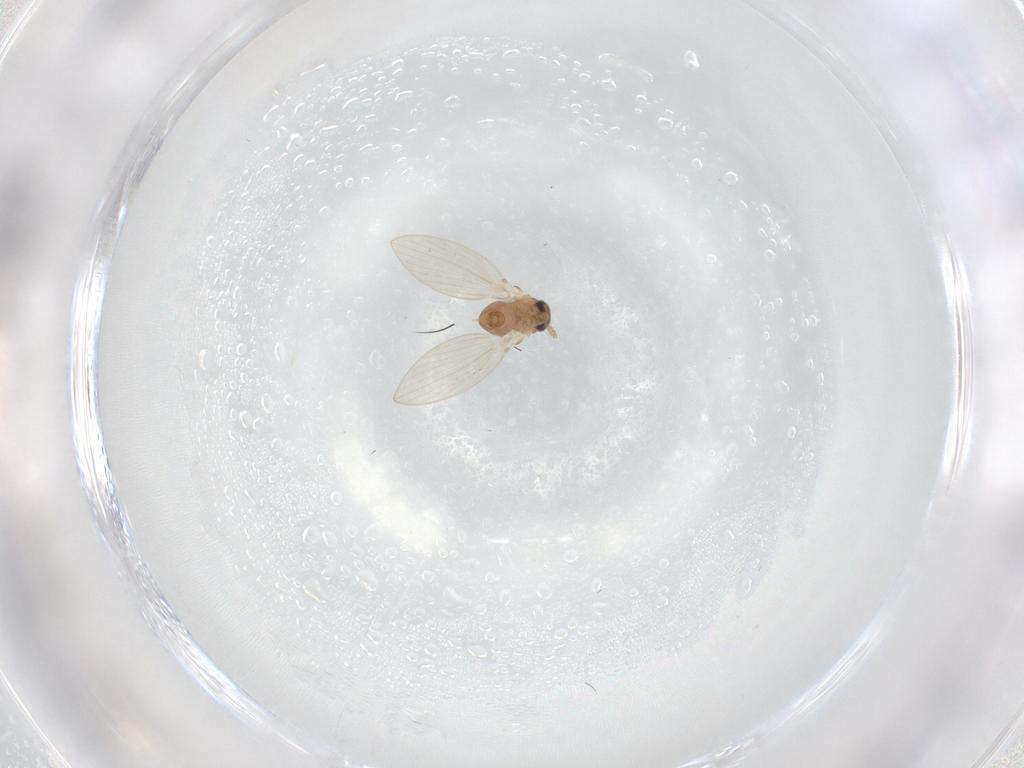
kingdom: Animalia
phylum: Arthropoda
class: Insecta
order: Diptera
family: Psychodidae
